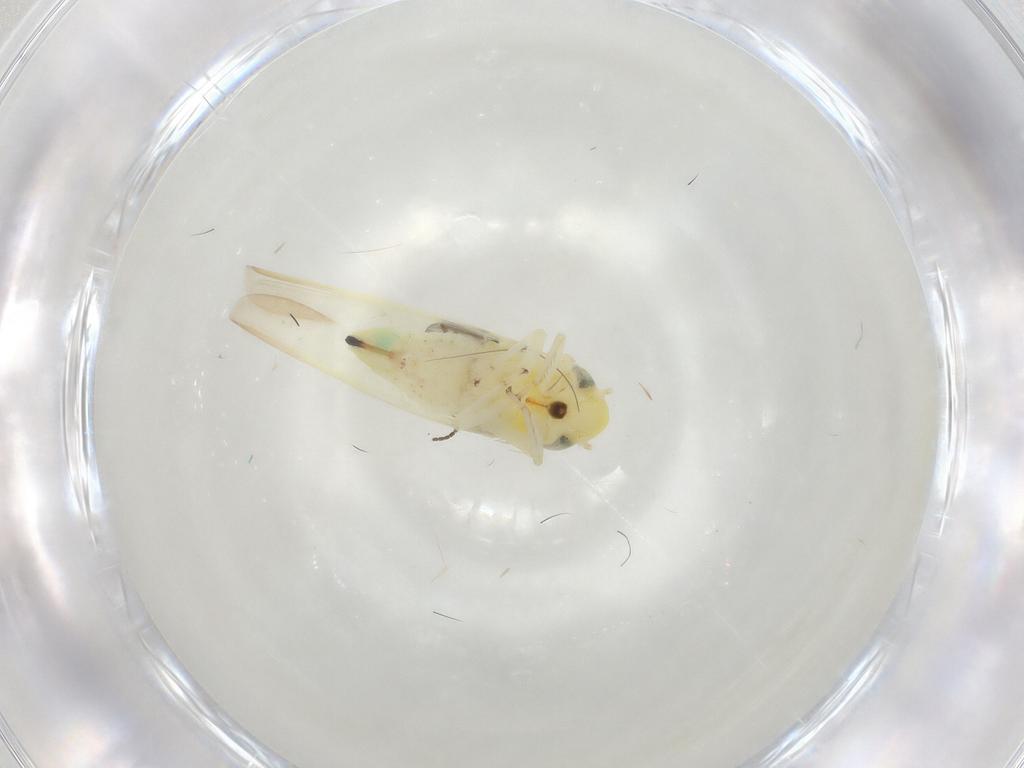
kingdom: Animalia
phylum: Arthropoda
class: Insecta
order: Hemiptera
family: Cicadellidae
